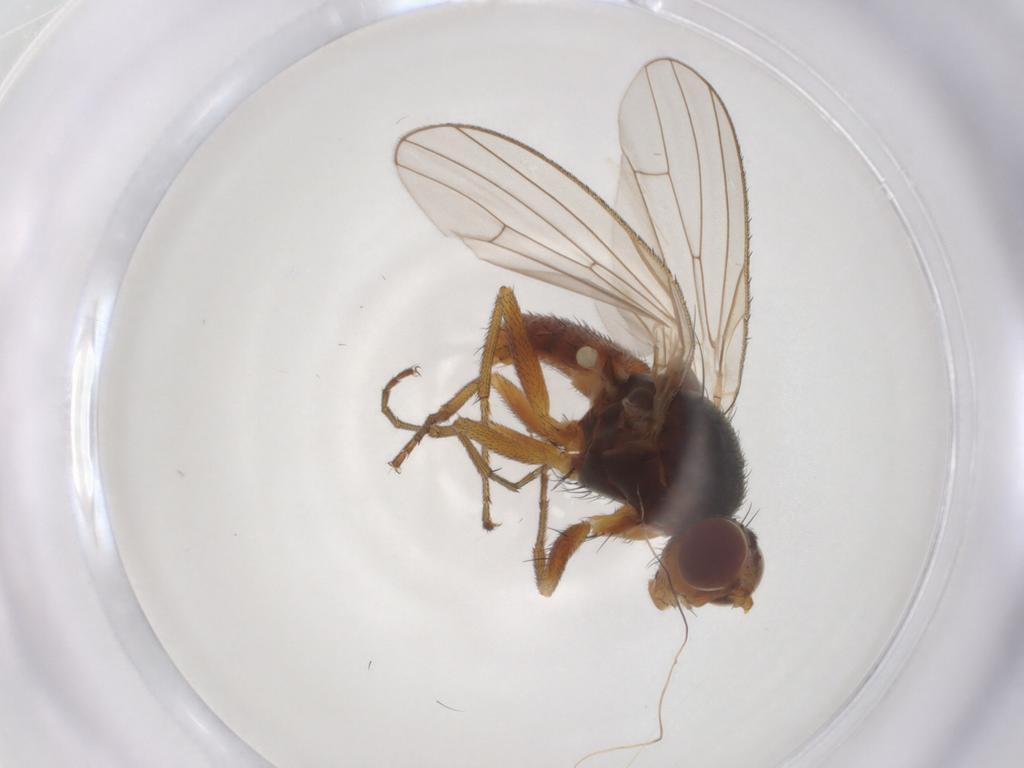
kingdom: Animalia
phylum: Arthropoda
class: Insecta
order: Diptera
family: Heleomyzidae
